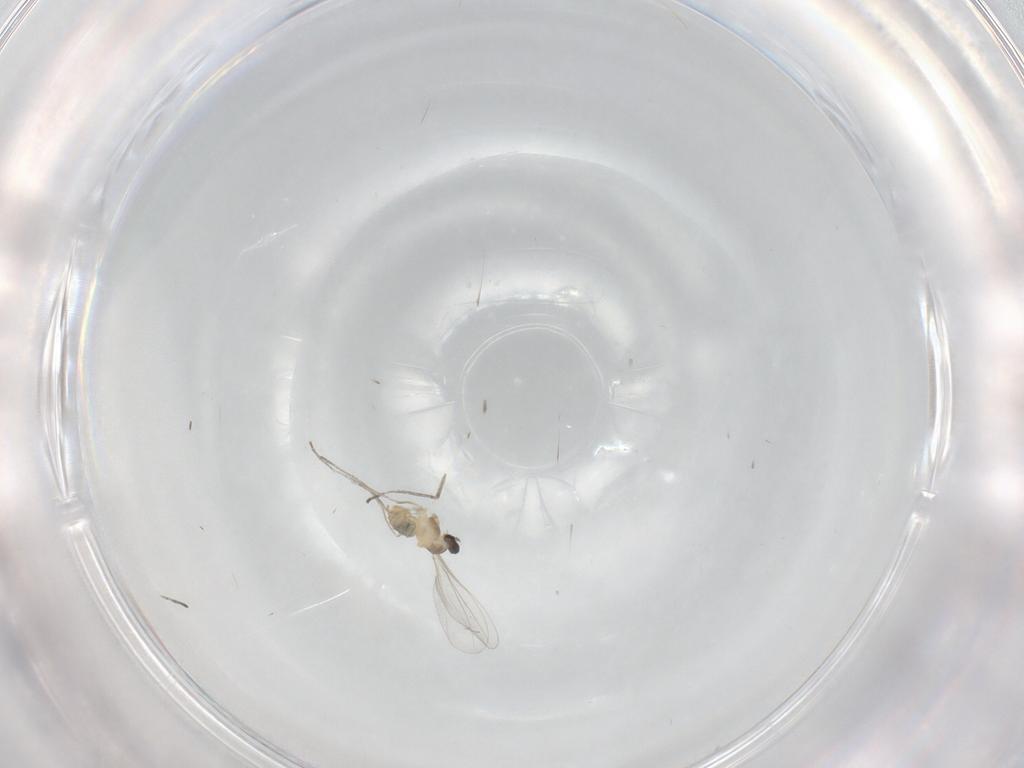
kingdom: Animalia
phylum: Arthropoda
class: Insecta
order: Diptera
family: Cecidomyiidae
